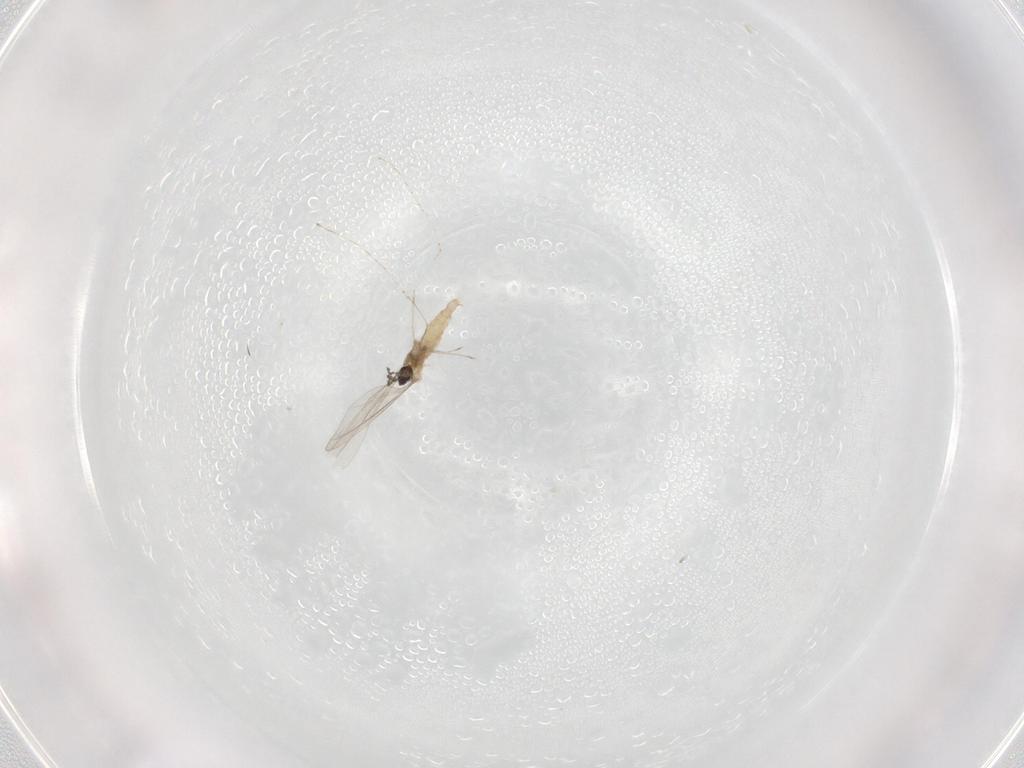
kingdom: Animalia
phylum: Arthropoda
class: Insecta
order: Diptera
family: Cecidomyiidae
